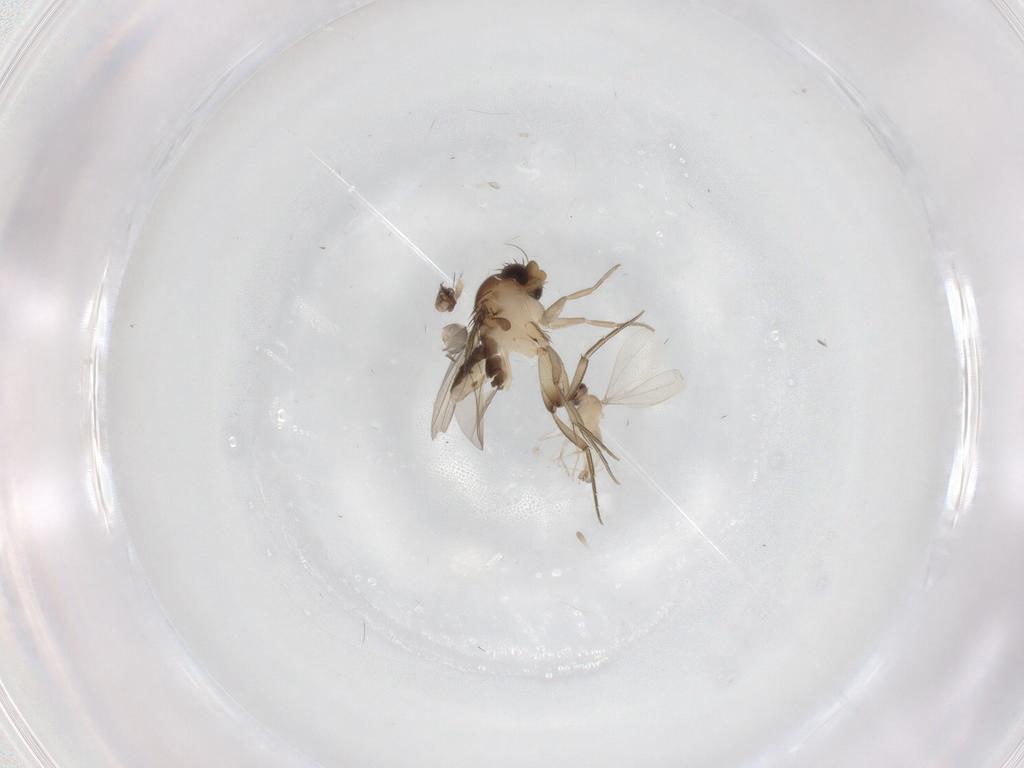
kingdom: Animalia
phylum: Arthropoda
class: Insecta
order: Diptera
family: Phoridae
